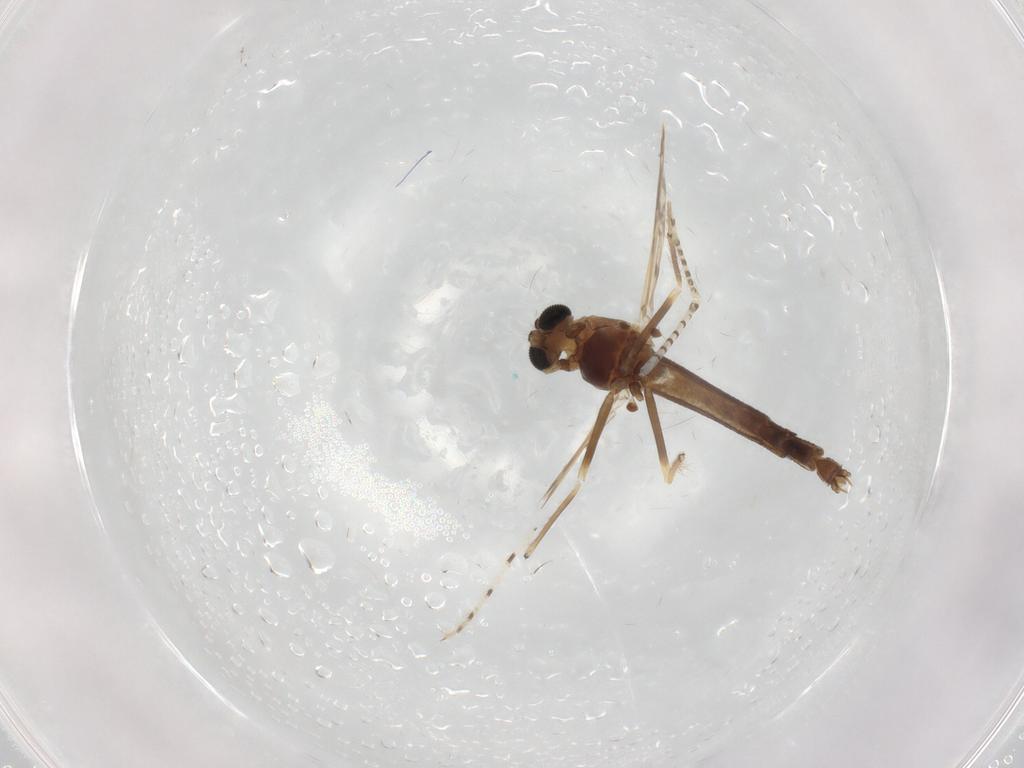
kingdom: Animalia
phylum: Arthropoda
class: Insecta
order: Diptera
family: Chironomidae
